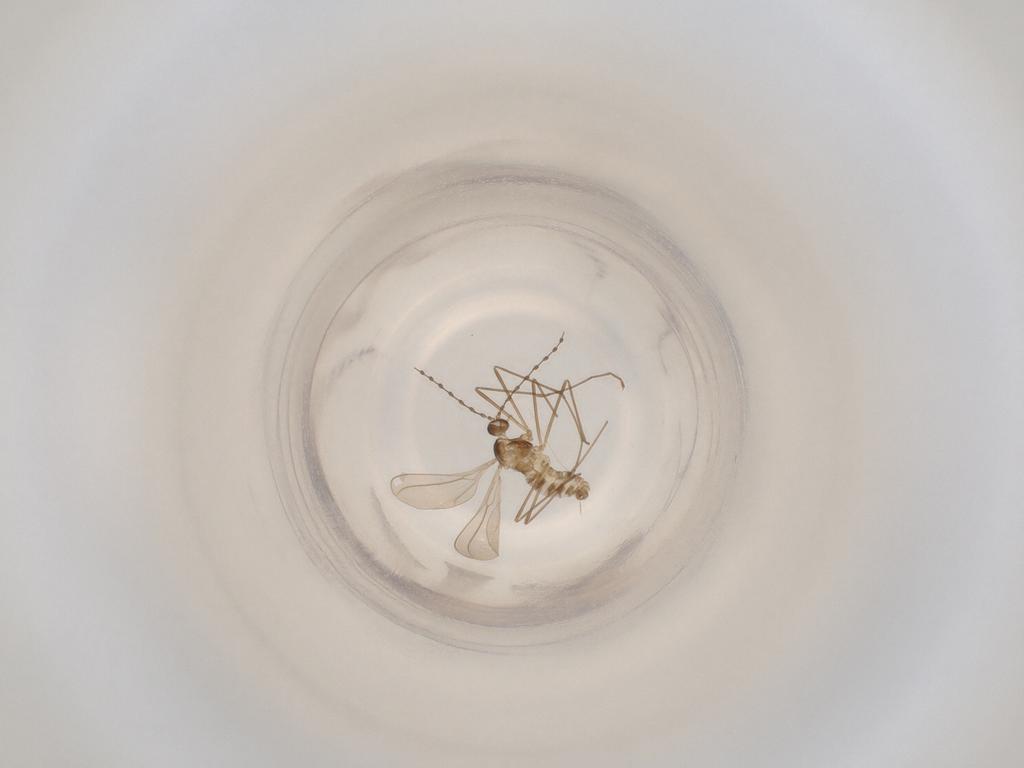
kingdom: Animalia
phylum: Arthropoda
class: Insecta
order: Diptera
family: Cecidomyiidae
